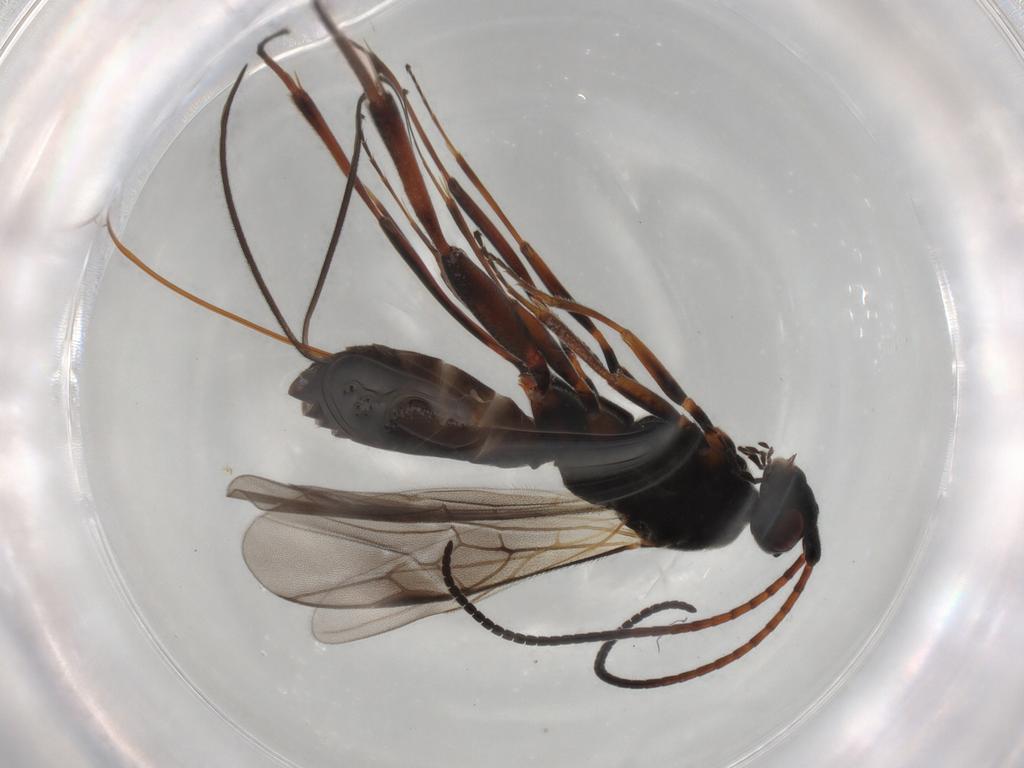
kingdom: Animalia
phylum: Arthropoda
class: Insecta
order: Hymenoptera
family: Braconidae
